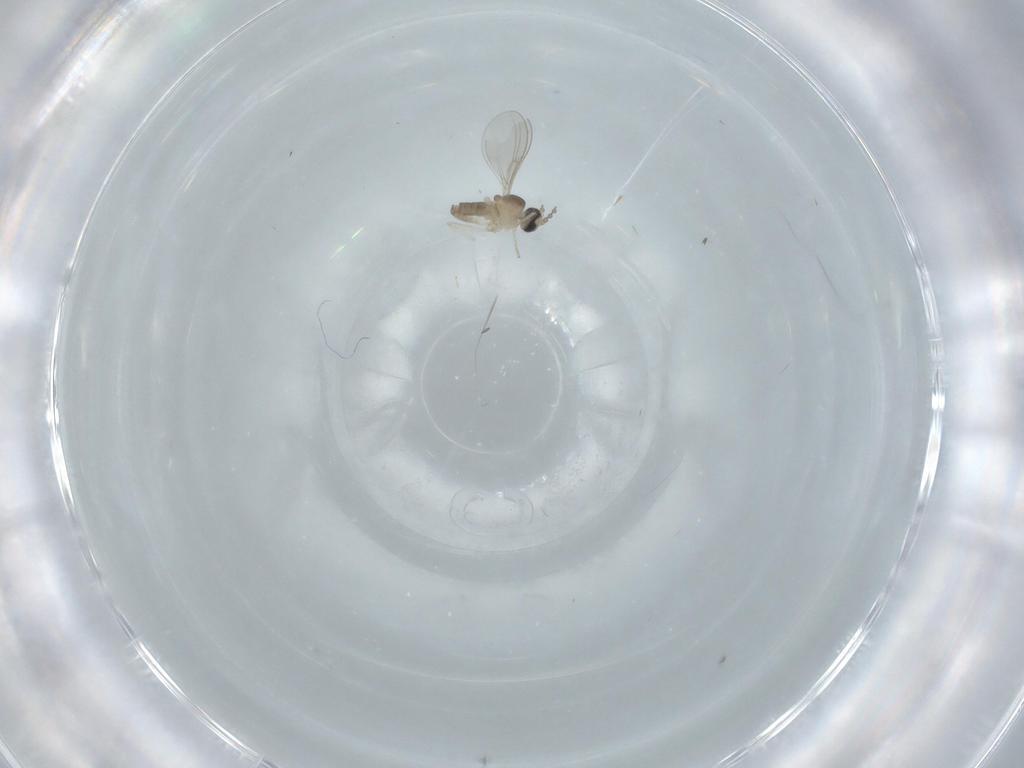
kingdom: Animalia
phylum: Arthropoda
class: Insecta
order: Diptera
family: Cecidomyiidae
